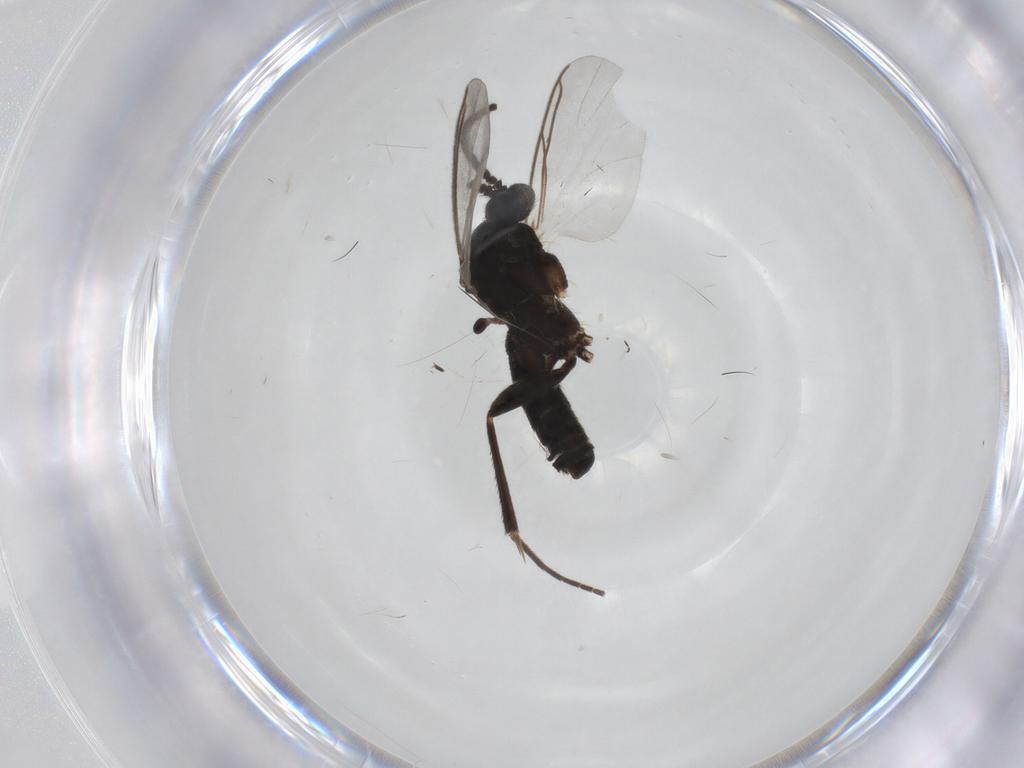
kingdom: Animalia
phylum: Arthropoda
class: Insecta
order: Diptera
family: Mycetophilidae
